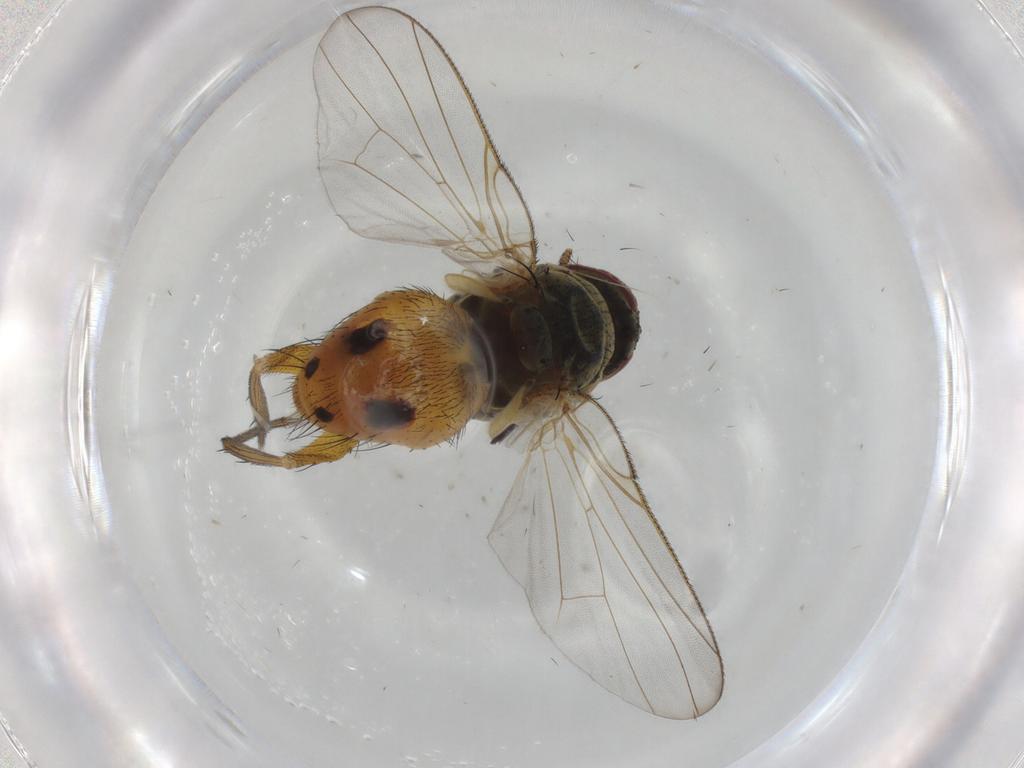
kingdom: Animalia
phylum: Arthropoda
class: Insecta
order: Diptera
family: Muscidae
